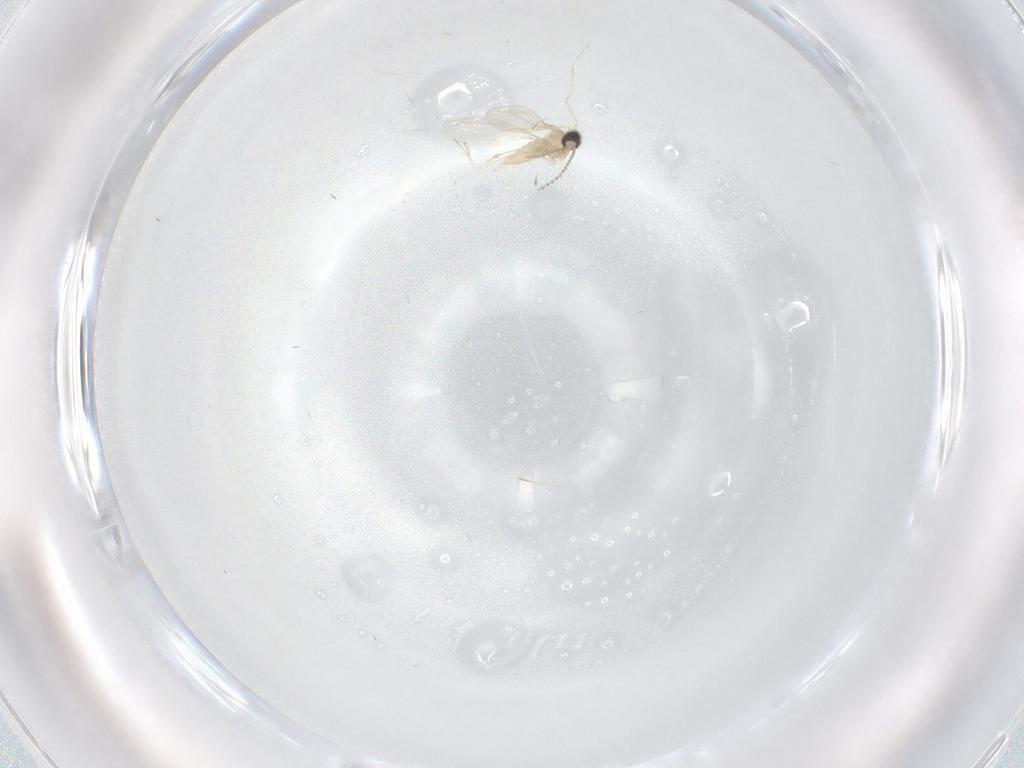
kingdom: Animalia
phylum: Arthropoda
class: Insecta
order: Diptera
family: Ceratopogonidae
